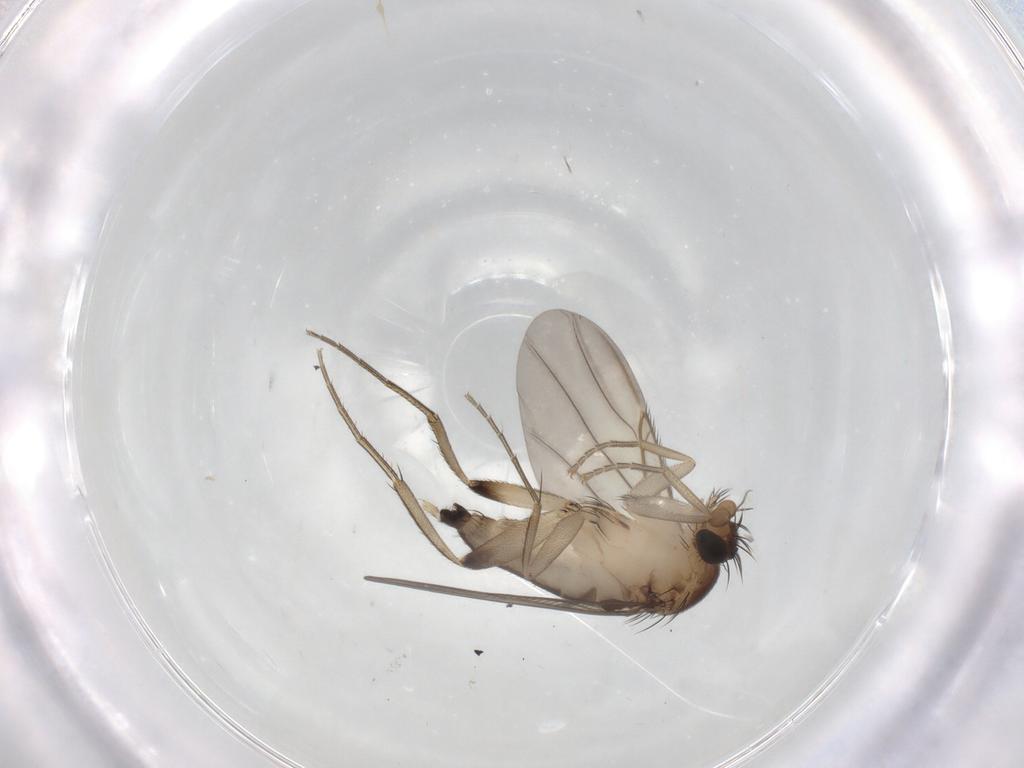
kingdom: Animalia
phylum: Arthropoda
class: Insecta
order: Diptera
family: Phoridae
